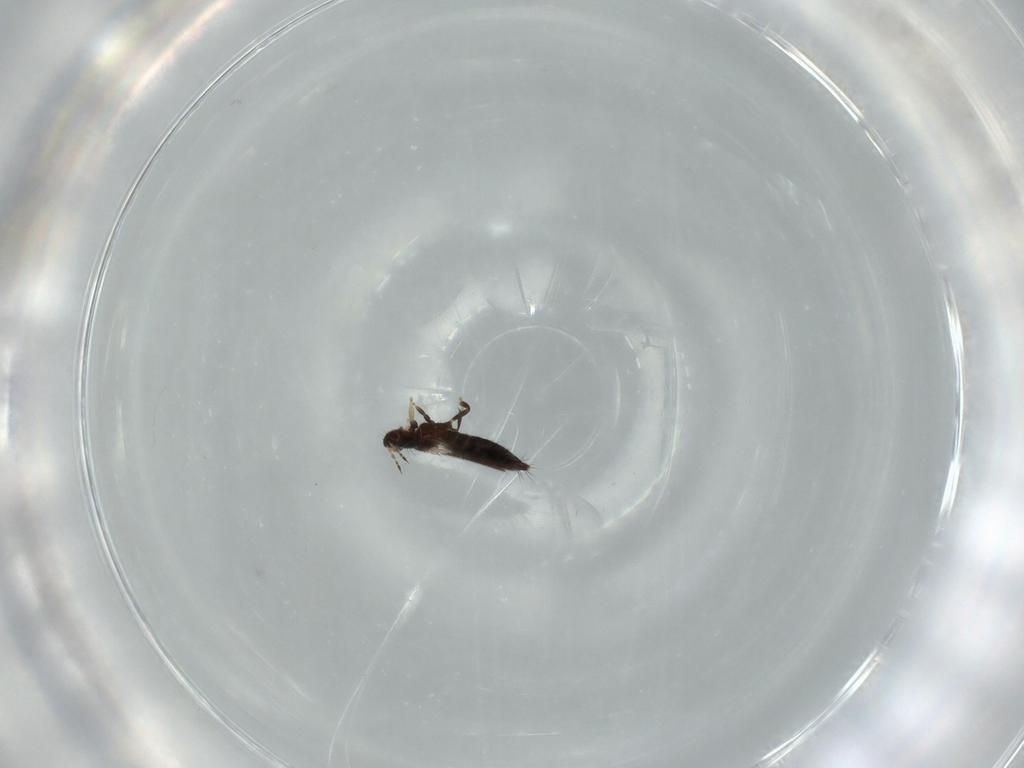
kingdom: Animalia
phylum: Arthropoda
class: Insecta
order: Thysanoptera
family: Thripidae
